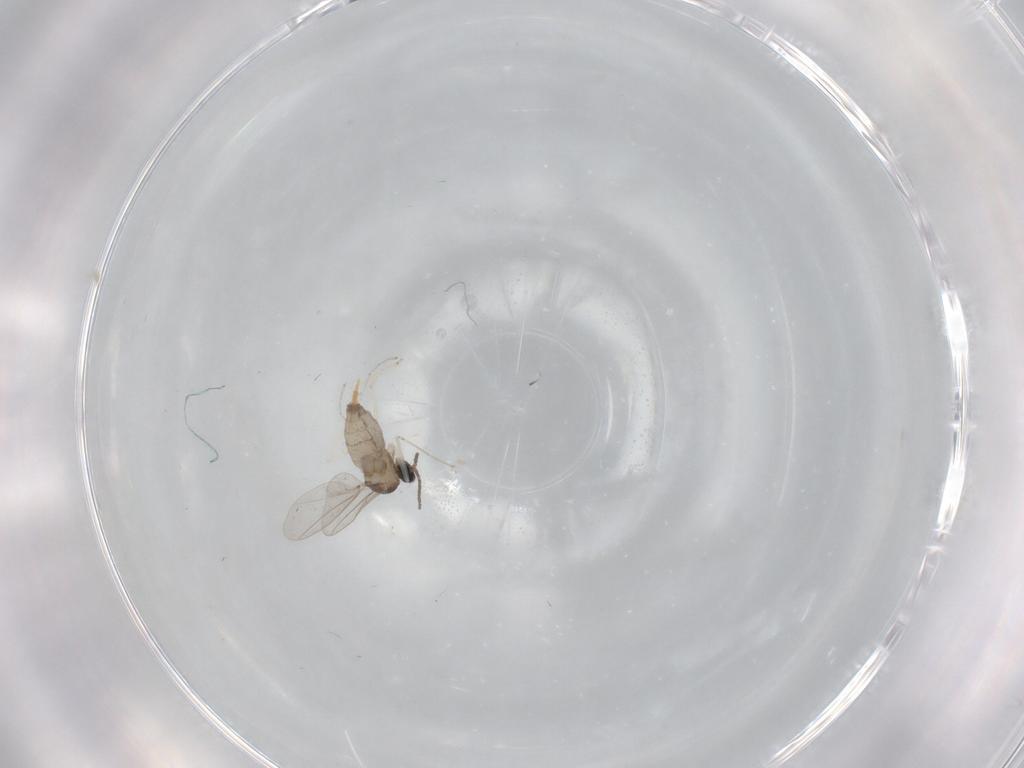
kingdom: Animalia
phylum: Arthropoda
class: Insecta
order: Diptera
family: Cecidomyiidae
